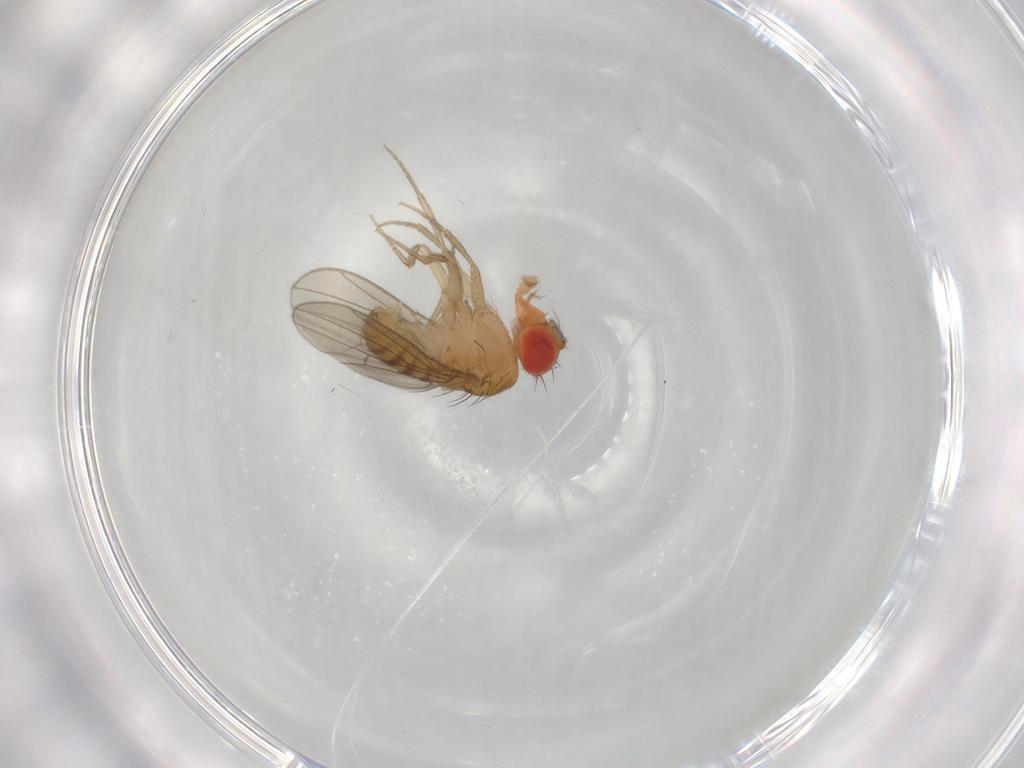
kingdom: Animalia
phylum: Arthropoda
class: Insecta
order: Diptera
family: Drosophilidae
